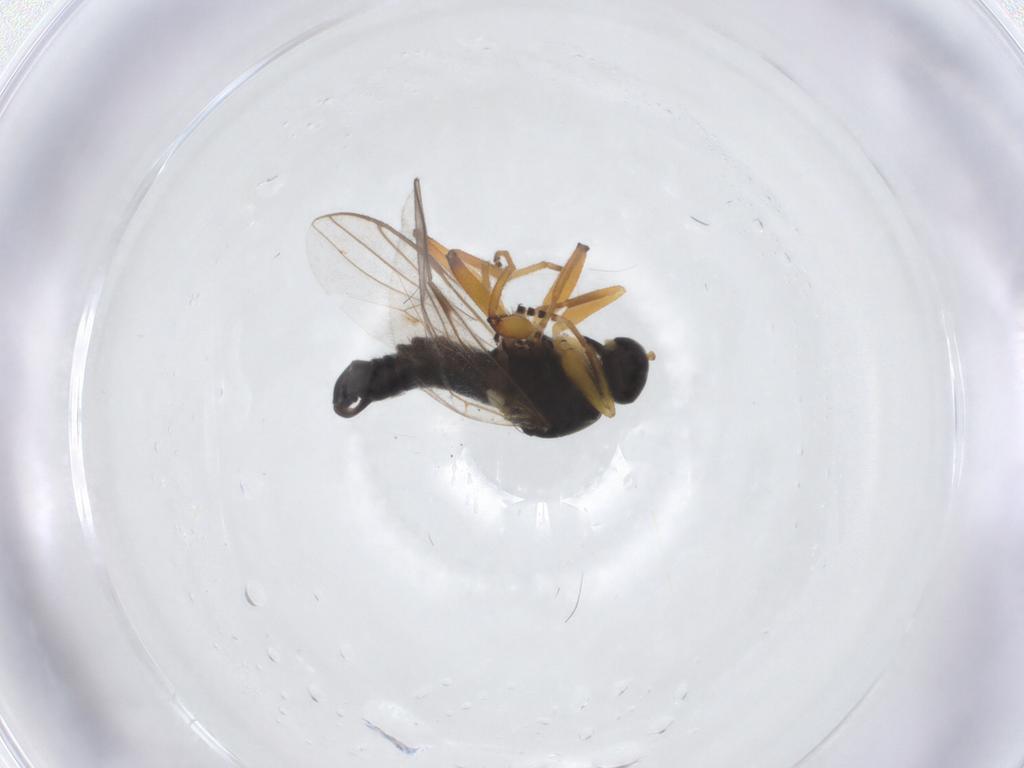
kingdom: Animalia
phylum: Arthropoda
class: Insecta
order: Diptera
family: Hybotidae
